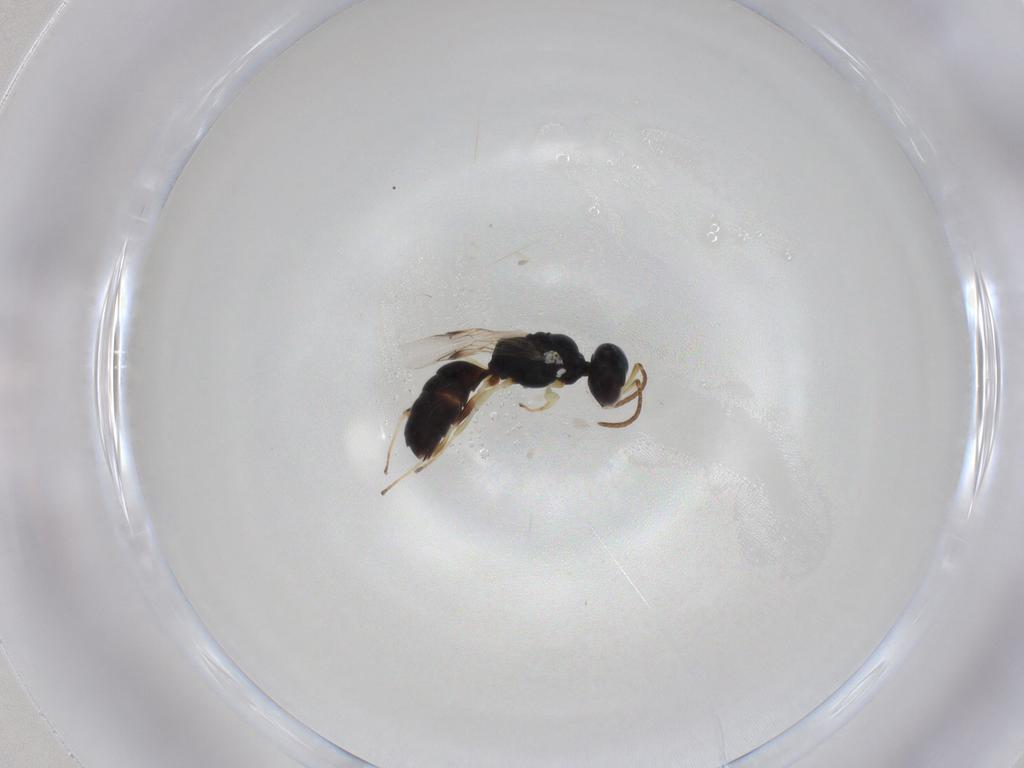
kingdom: Animalia
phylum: Arthropoda
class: Insecta
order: Hymenoptera
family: Pemphredonidae
